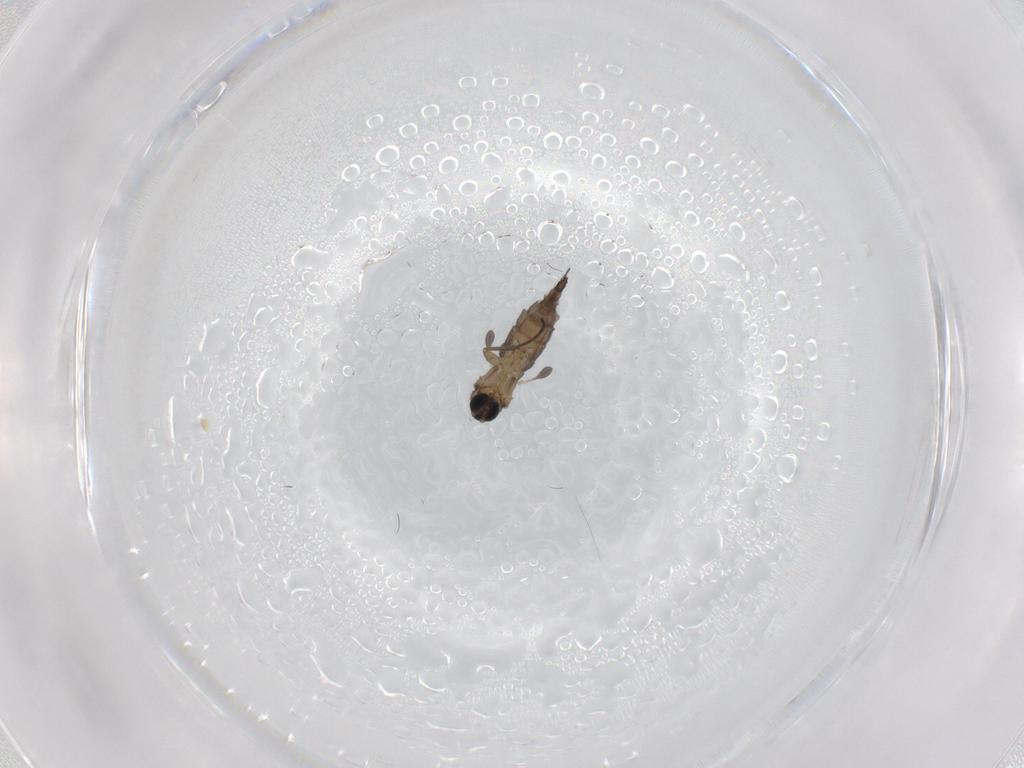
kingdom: Animalia
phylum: Arthropoda
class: Insecta
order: Diptera
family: Sciaridae
